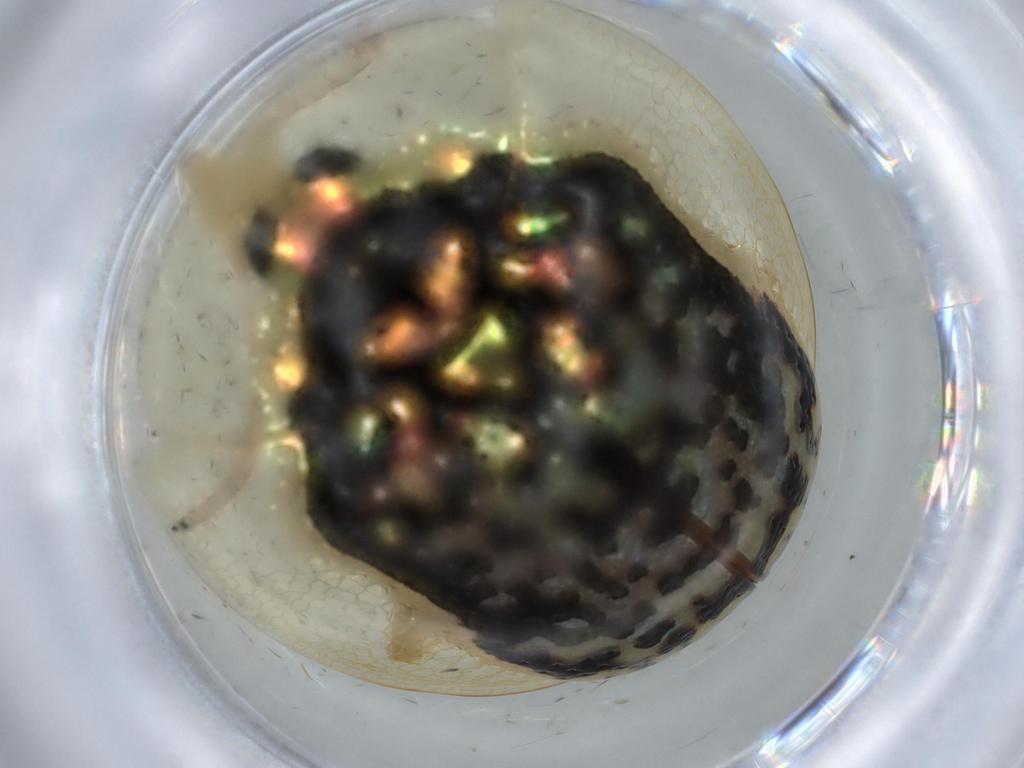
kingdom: Animalia
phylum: Arthropoda
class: Insecta
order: Coleoptera
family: Chrysomelidae
